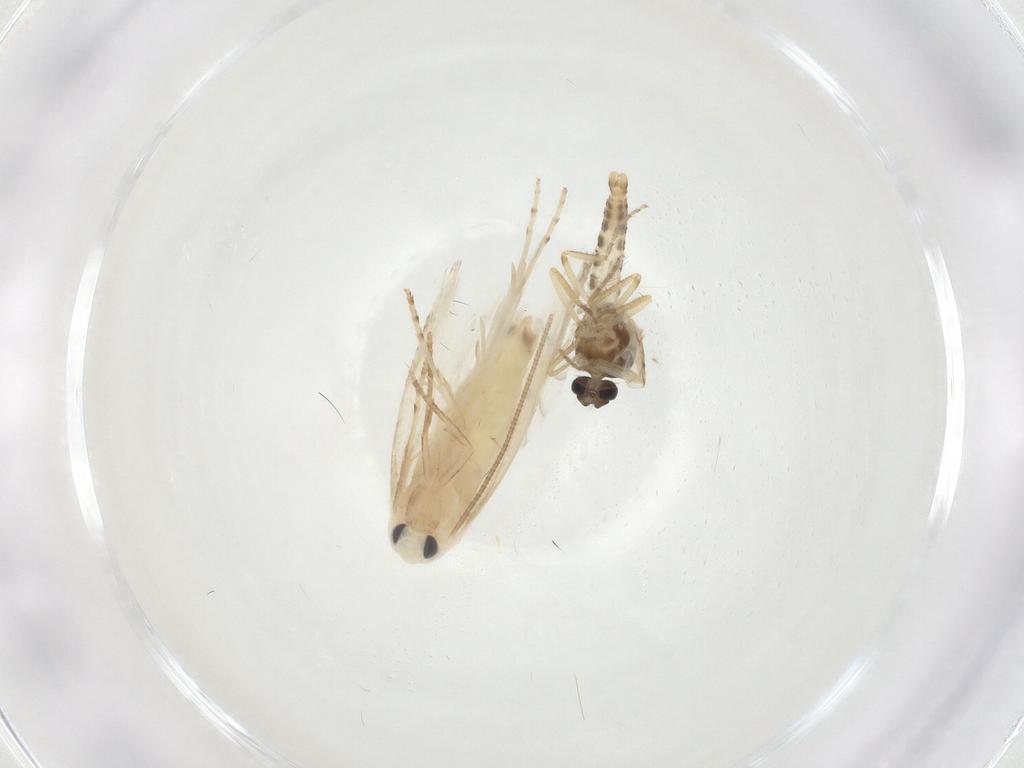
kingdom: Animalia
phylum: Arthropoda
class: Insecta
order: Lepidoptera
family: Lyonetiidae
